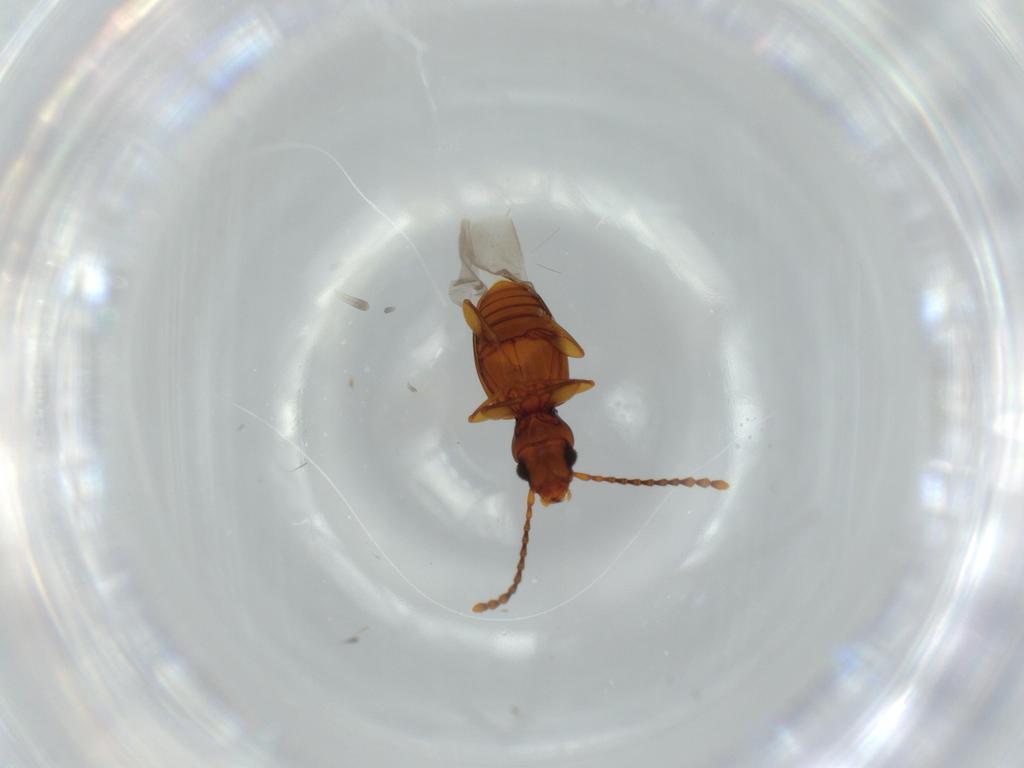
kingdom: Animalia
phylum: Arthropoda
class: Insecta
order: Coleoptera
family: Laemophloeidae
